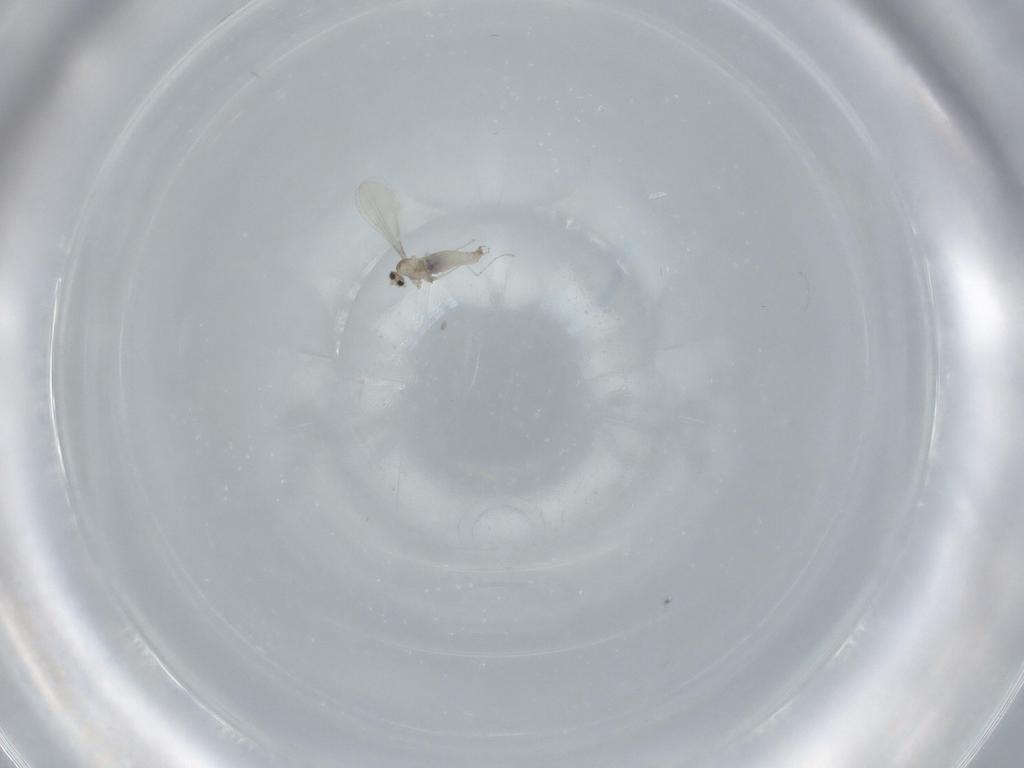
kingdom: Animalia
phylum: Arthropoda
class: Insecta
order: Diptera
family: Cecidomyiidae
